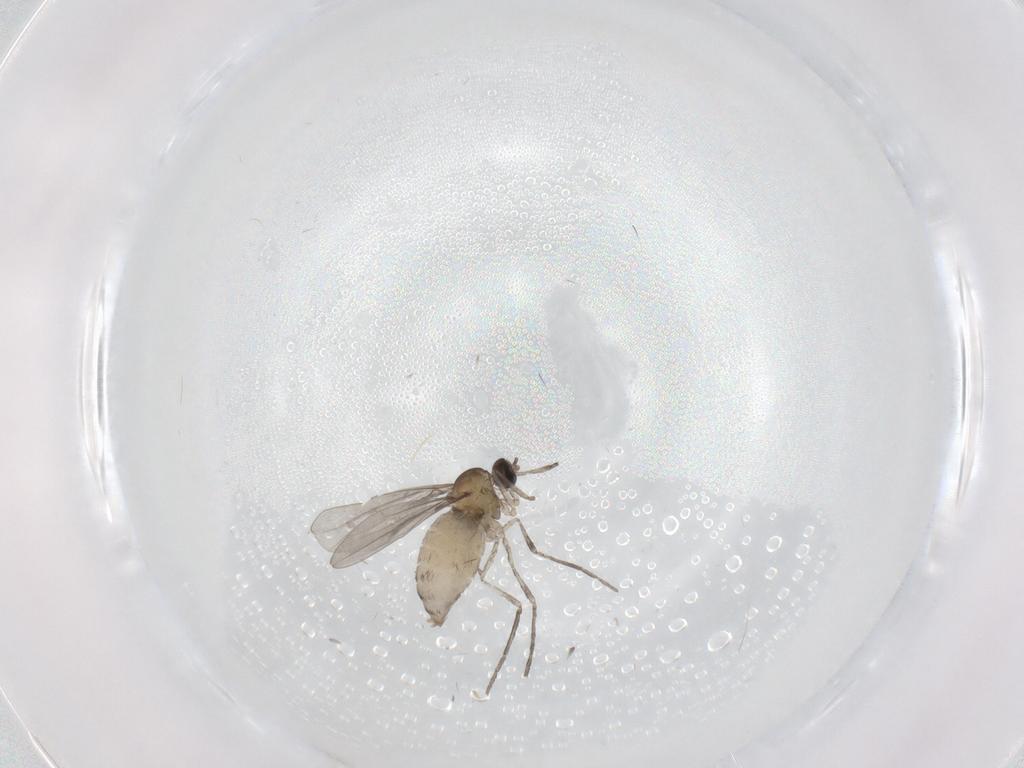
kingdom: Animalia
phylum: Arthropoda
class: Insecta
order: Diptera
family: Chironomidae
